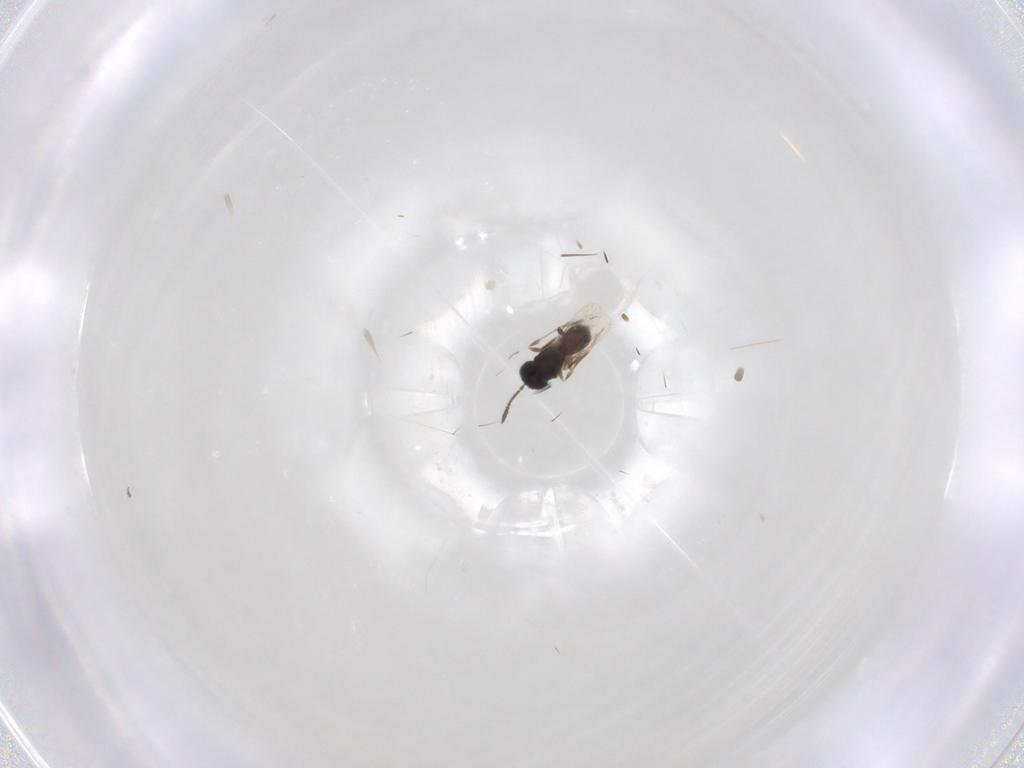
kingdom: Animalia
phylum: Arthropoda
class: Insecta
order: Hymenoptera
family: Scelionidae
